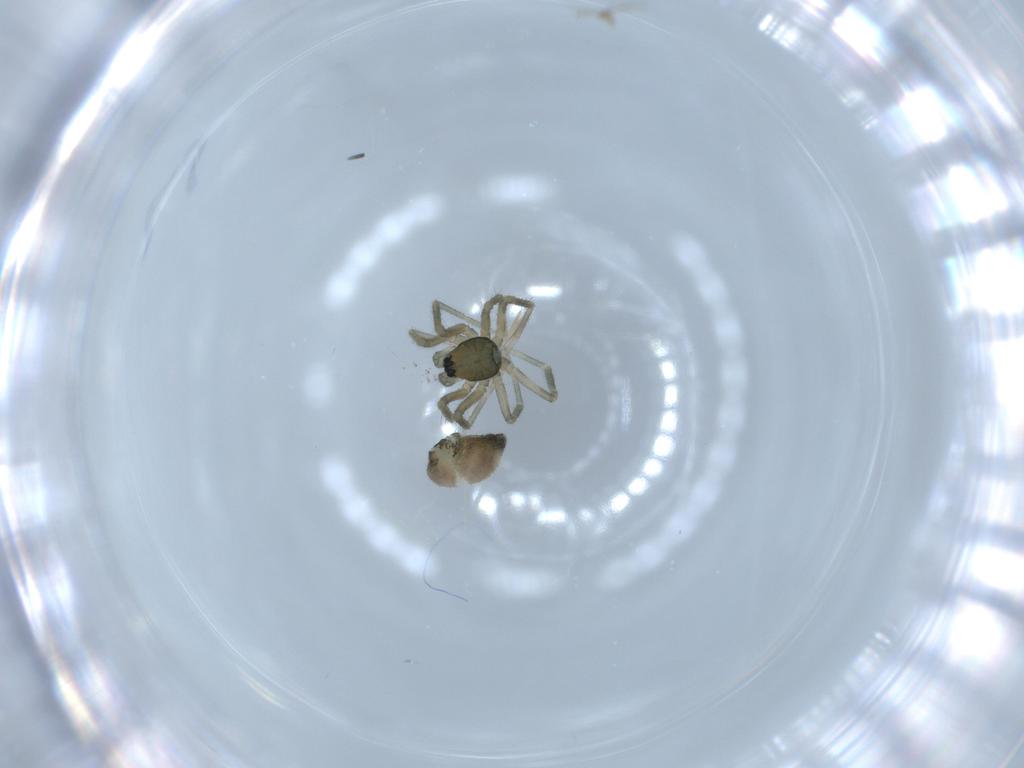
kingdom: Animalia
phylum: Arthropoda
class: Arachnida
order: Araneae
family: Linyphiidae
